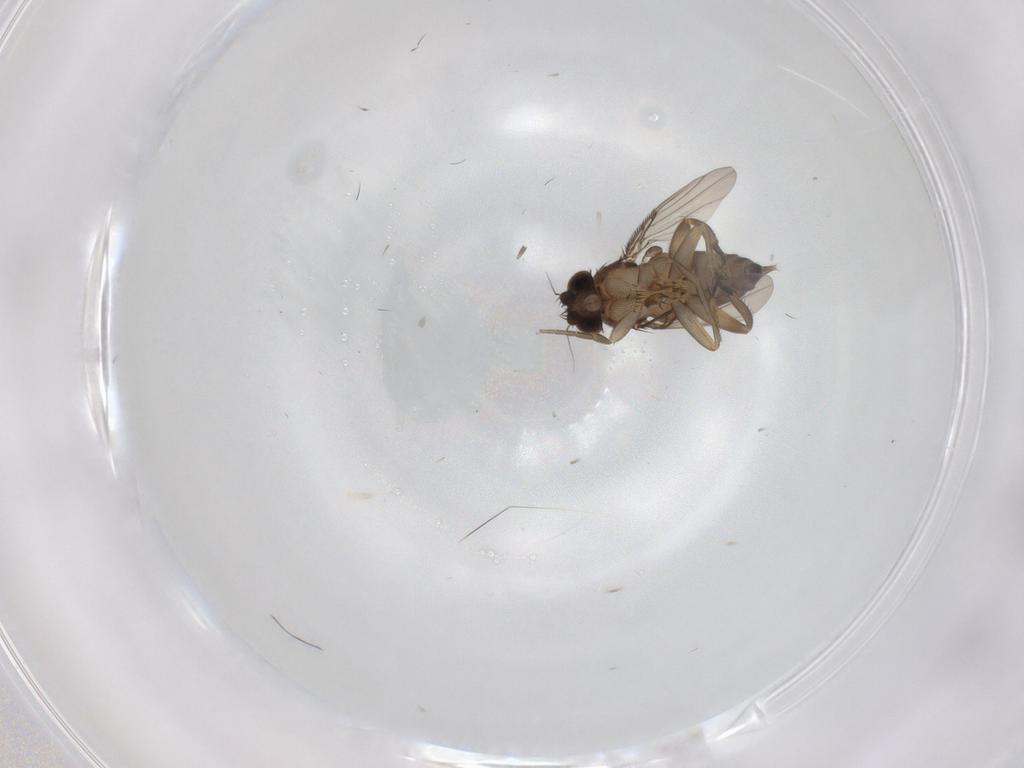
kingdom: Animalia
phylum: Arthropoda
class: Insecta
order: Diptera
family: Phoridae
